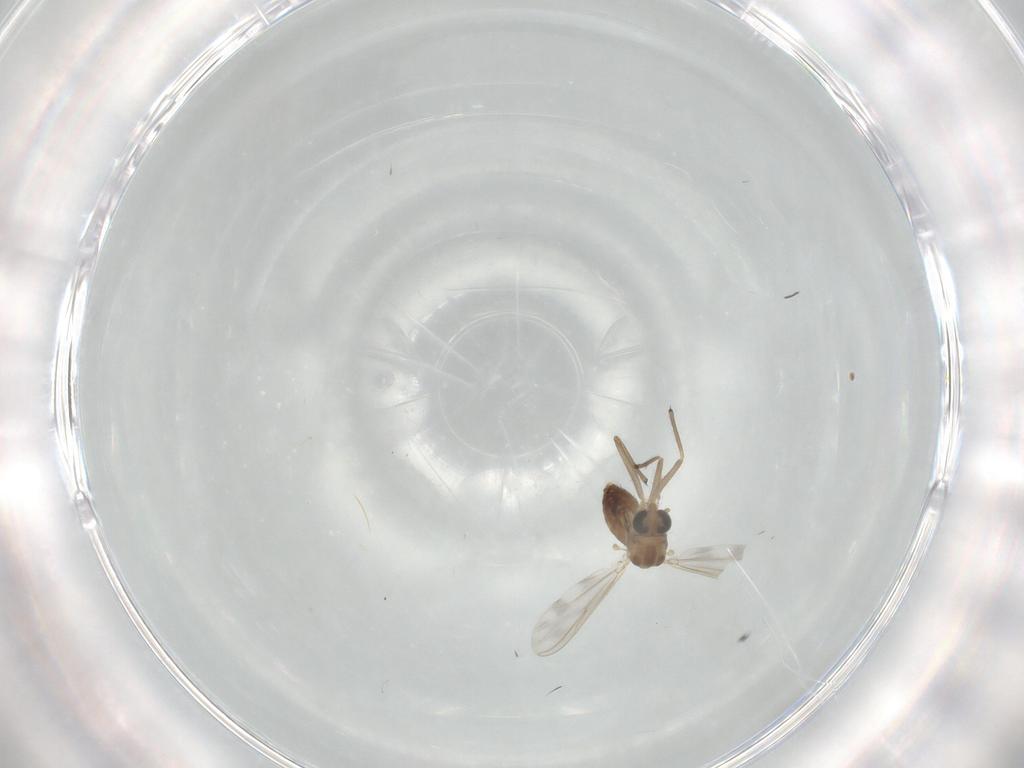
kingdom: Animalia
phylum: Arthropoda
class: Insecta
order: Diptera
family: Chironomidae
